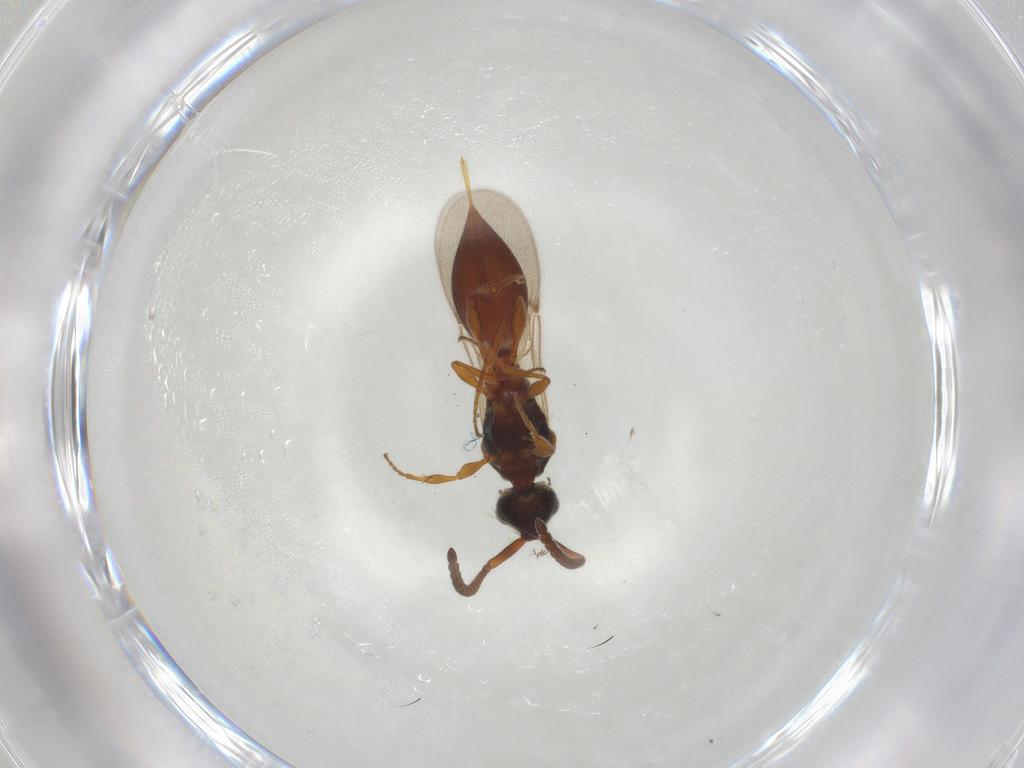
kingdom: Animalia
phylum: Arthropoda
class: Insecta
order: Hymenoptera
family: Diapriidae
